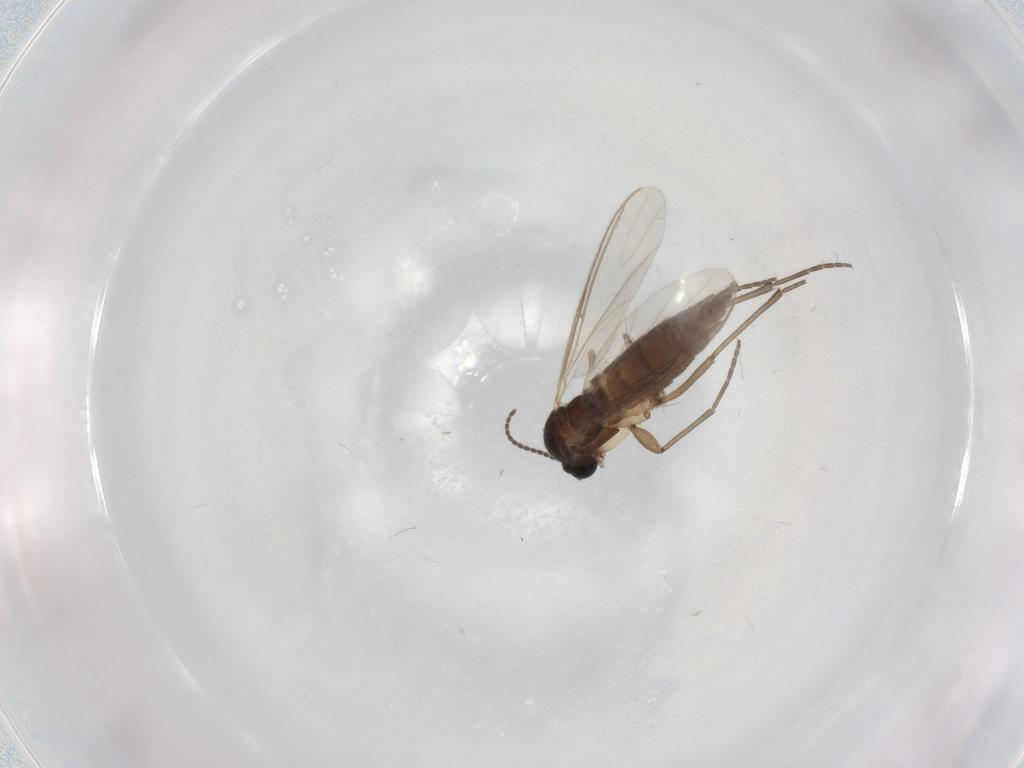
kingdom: Animalia
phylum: Arthropoda
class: Insecta
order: Diptera
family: Sciaridae
